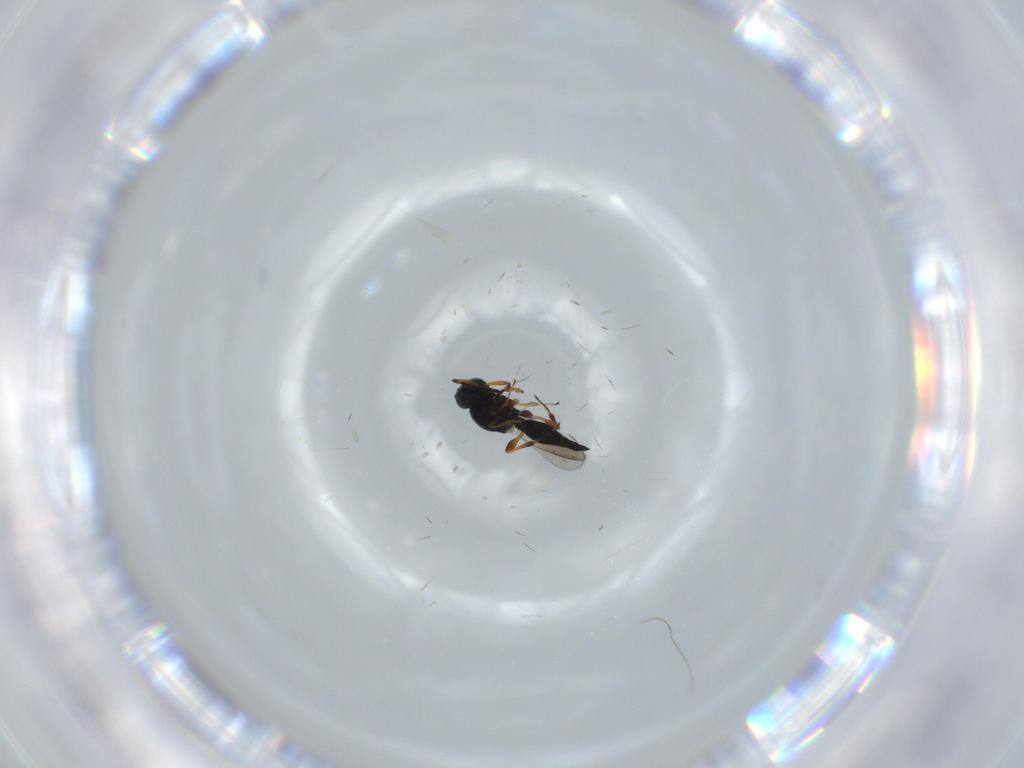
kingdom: Animalia
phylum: Arthropoda
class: Insecta
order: Hymenoptera
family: Platygastridae
